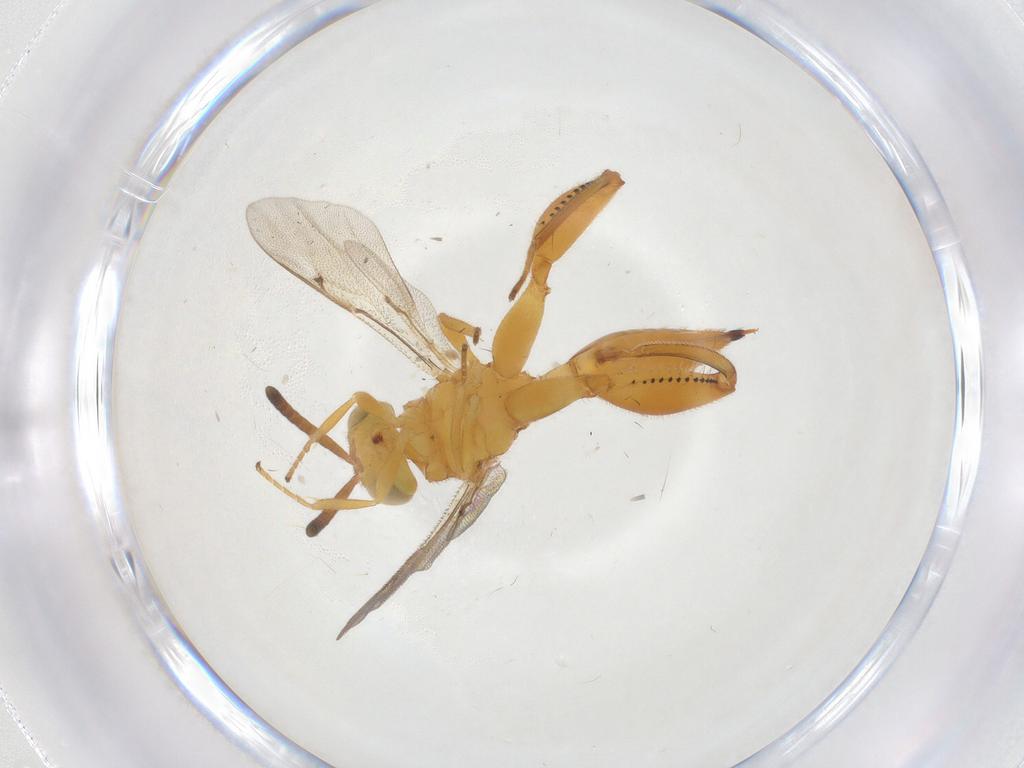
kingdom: Animalia
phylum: Arthropoda
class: Insecta
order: Hymenoptera
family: Chalcididae
